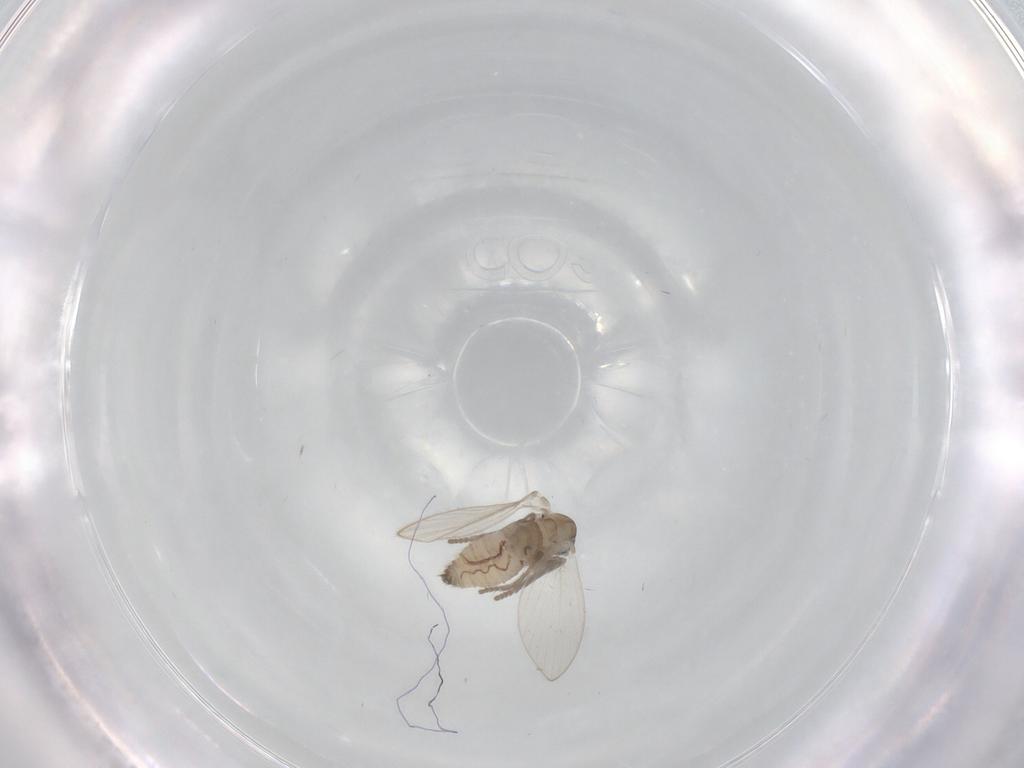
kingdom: Animalia
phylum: Arthropoda
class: Insecta
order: Diptera
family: Psychodidae
